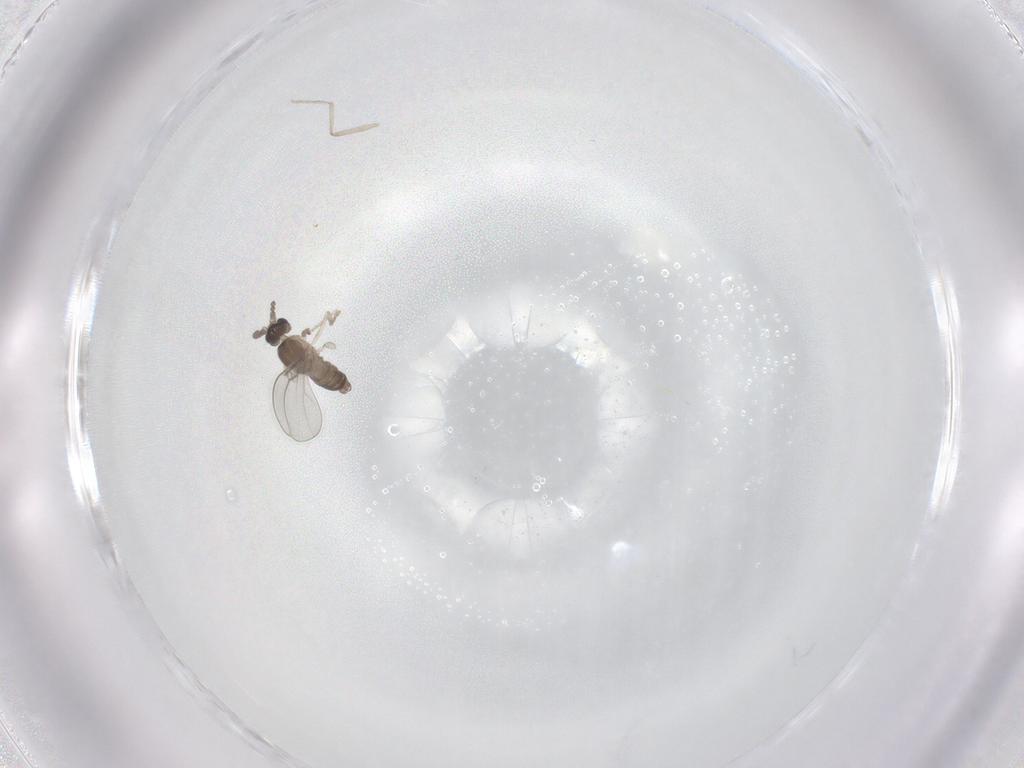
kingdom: Animalia
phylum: Arthropoda
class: Insecta
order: Diptera
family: Cecidomyiidae
